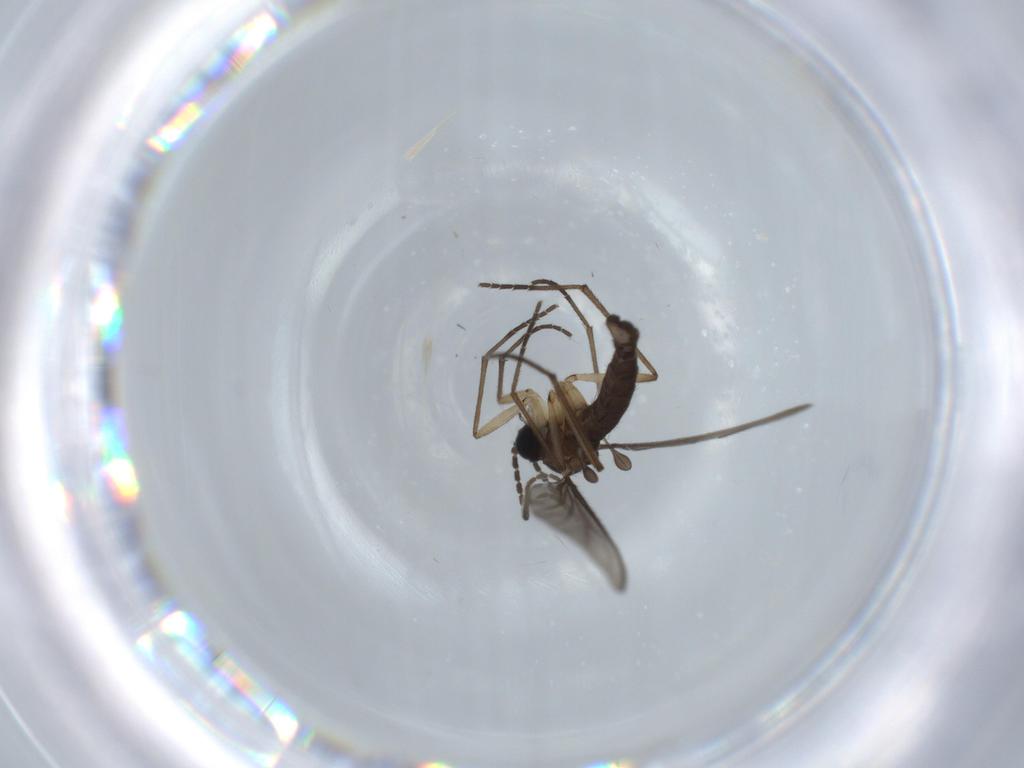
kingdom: Animalia
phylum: Arthropoda
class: Insecta
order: Diptera
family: Sciaridae
